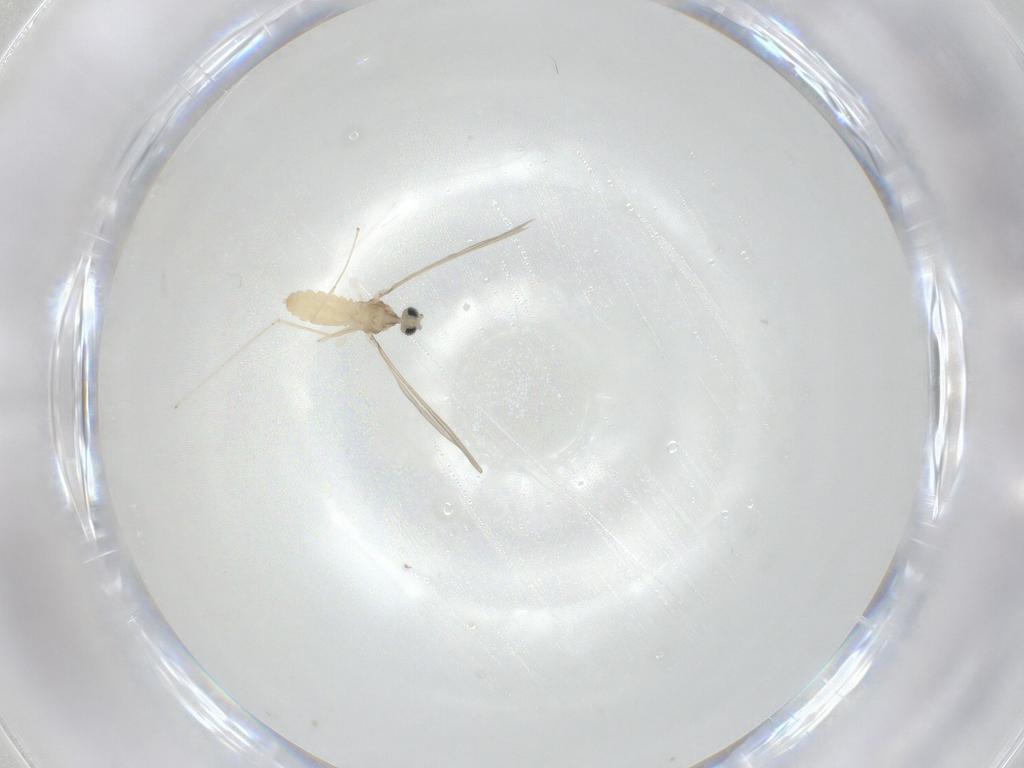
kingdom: Animalia
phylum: Arthropoda
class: Insecta
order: Diptera
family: Cecidomyiidae
